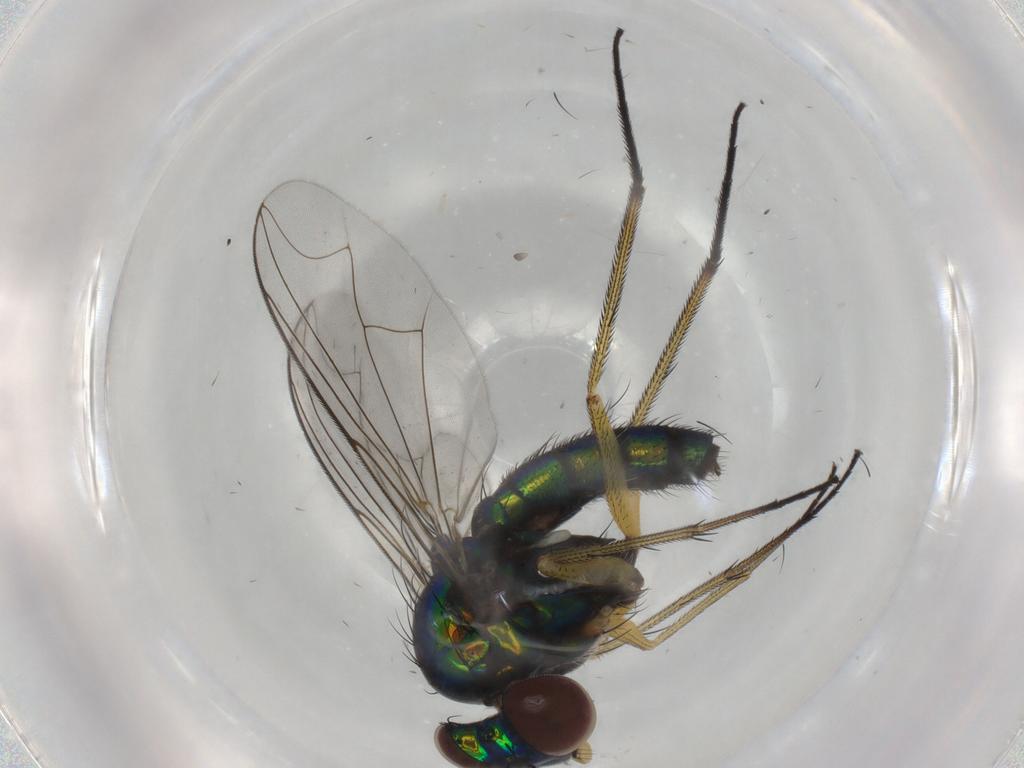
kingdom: Animalia
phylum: Arthropoda
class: Insecta
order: Diptera
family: Dolichopodidae
